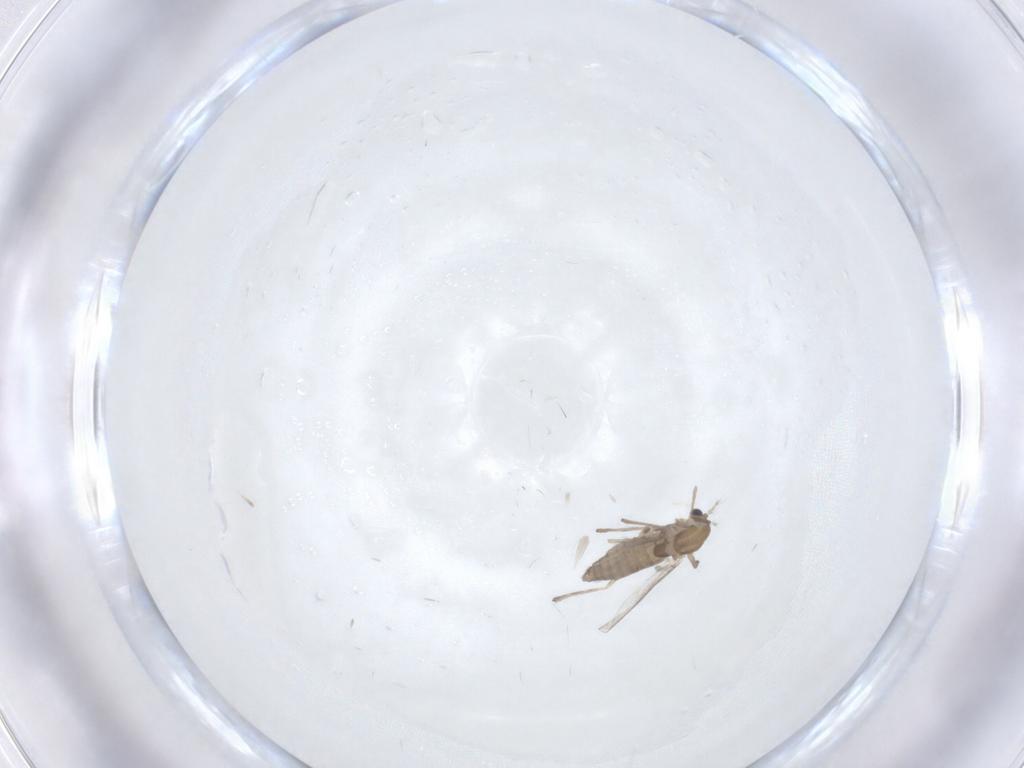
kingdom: Animalia
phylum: Arthropoda
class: Insecta
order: Diptera
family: Chironomidae
